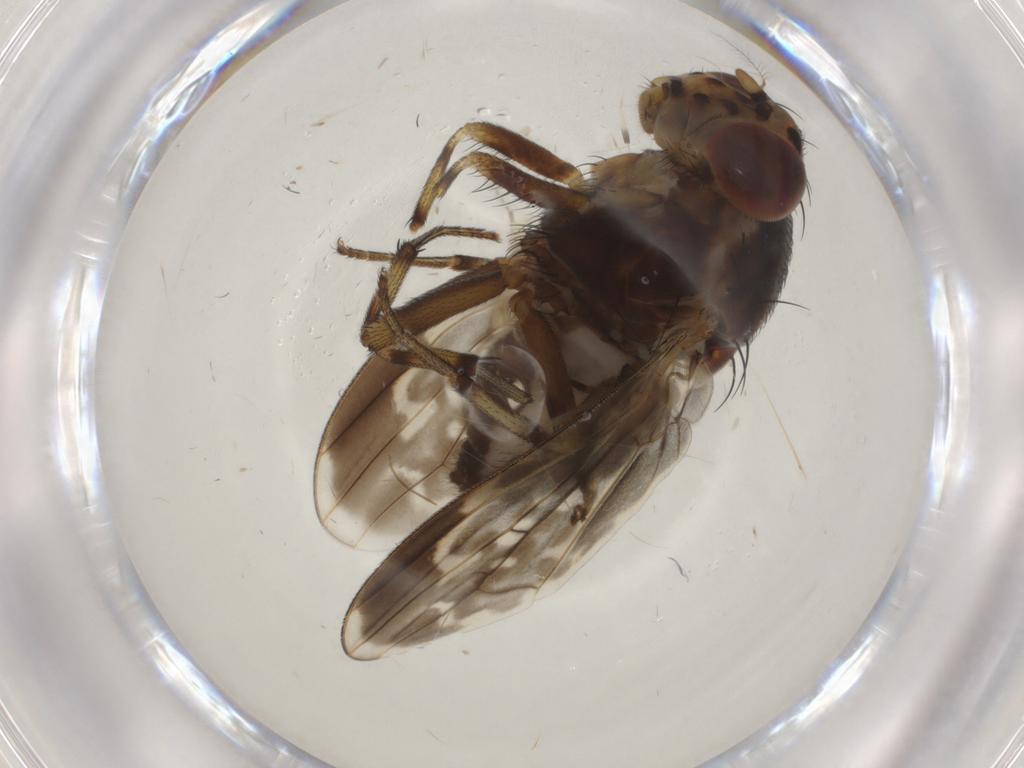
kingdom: Animalia
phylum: Arthropoda
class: Insecta
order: Diptera
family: Ceratopogonidae
